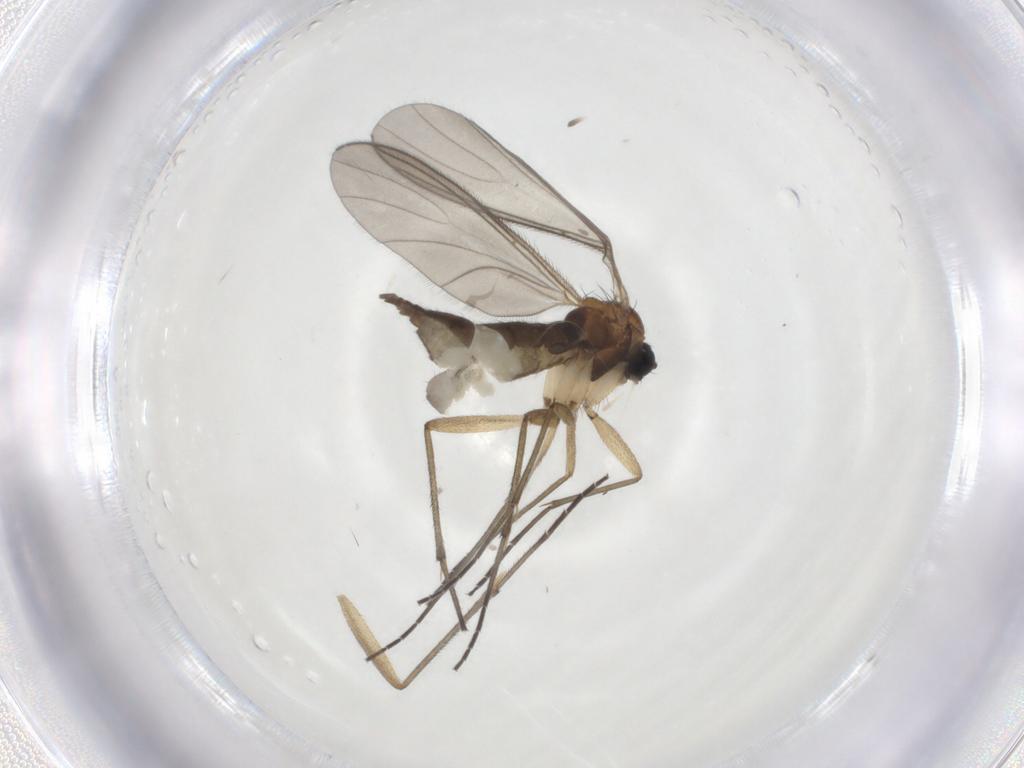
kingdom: Animalia
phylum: Arthropoda
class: Insecta
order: Diptera
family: Sciaridae
